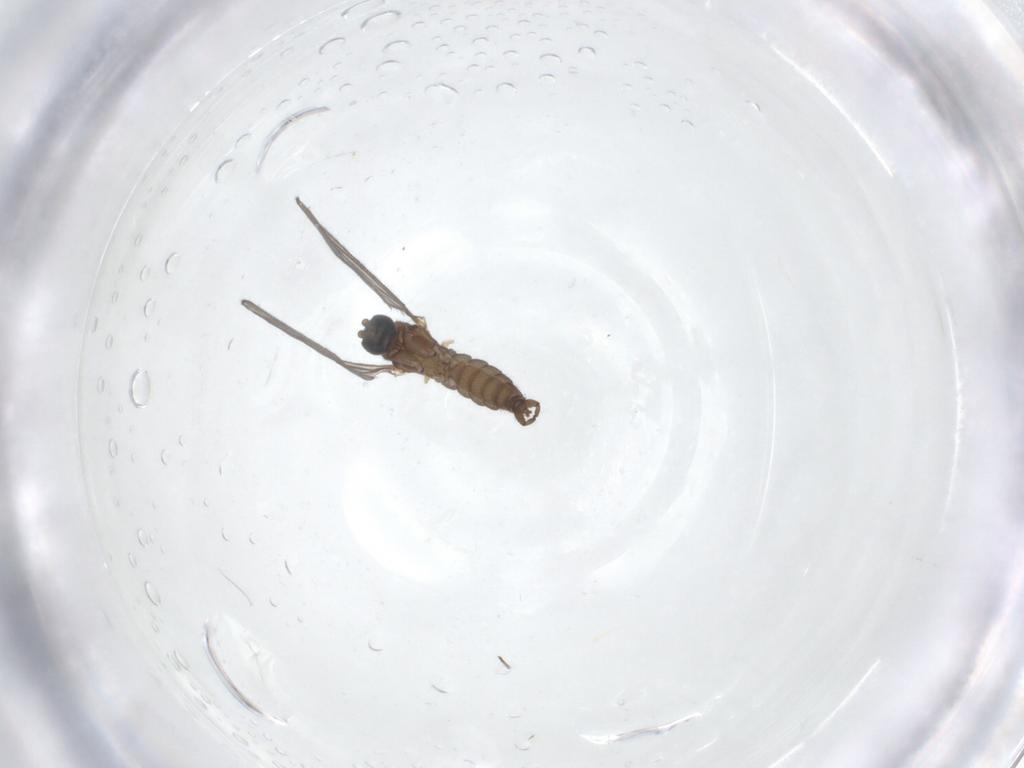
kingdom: Animalia
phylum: Arthropoda
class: Insecta
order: Diptera
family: Sciaridae
